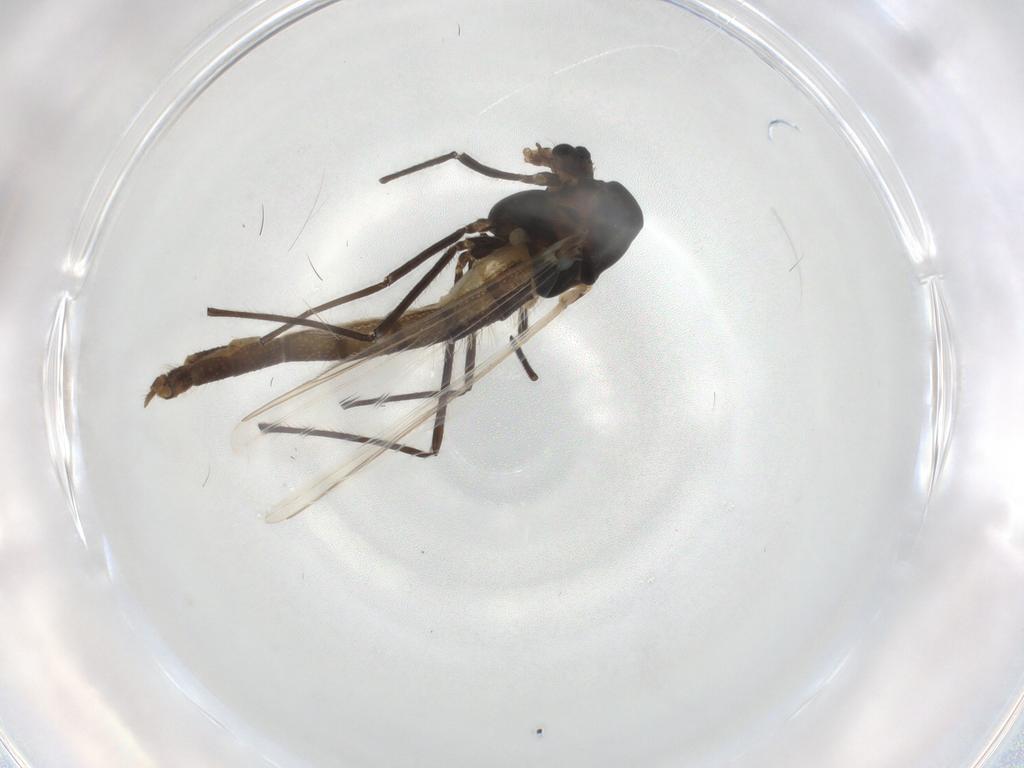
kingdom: Animalia
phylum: Arthropoda
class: Insecta
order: Diptera
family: Chironomidae
